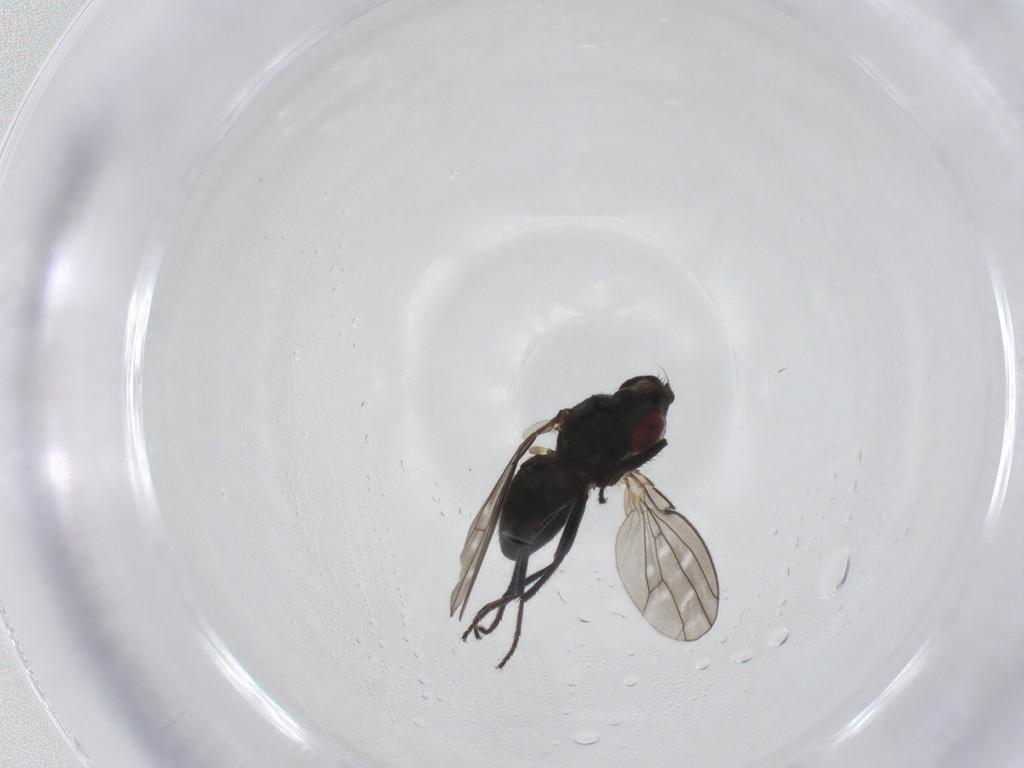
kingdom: Animalia
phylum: Arthropoda
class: Insecta
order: Diptera
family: Ephydridae
